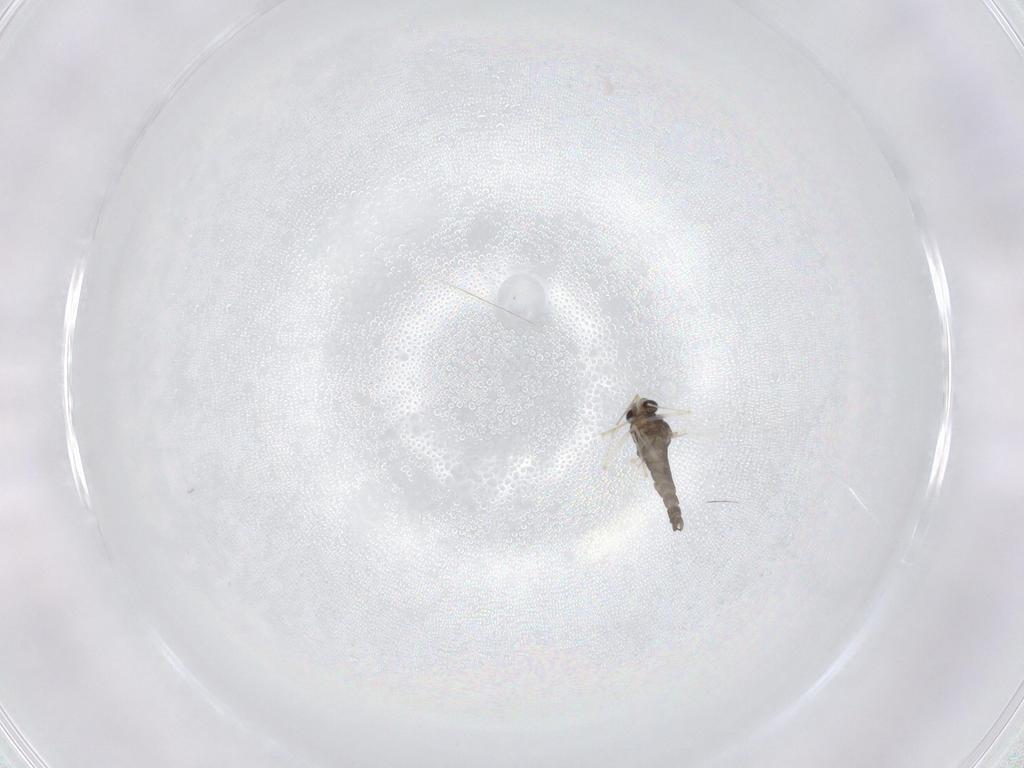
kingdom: Animalia
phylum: Arthropoda
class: Insecta
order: Diptera
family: Chironomidae
